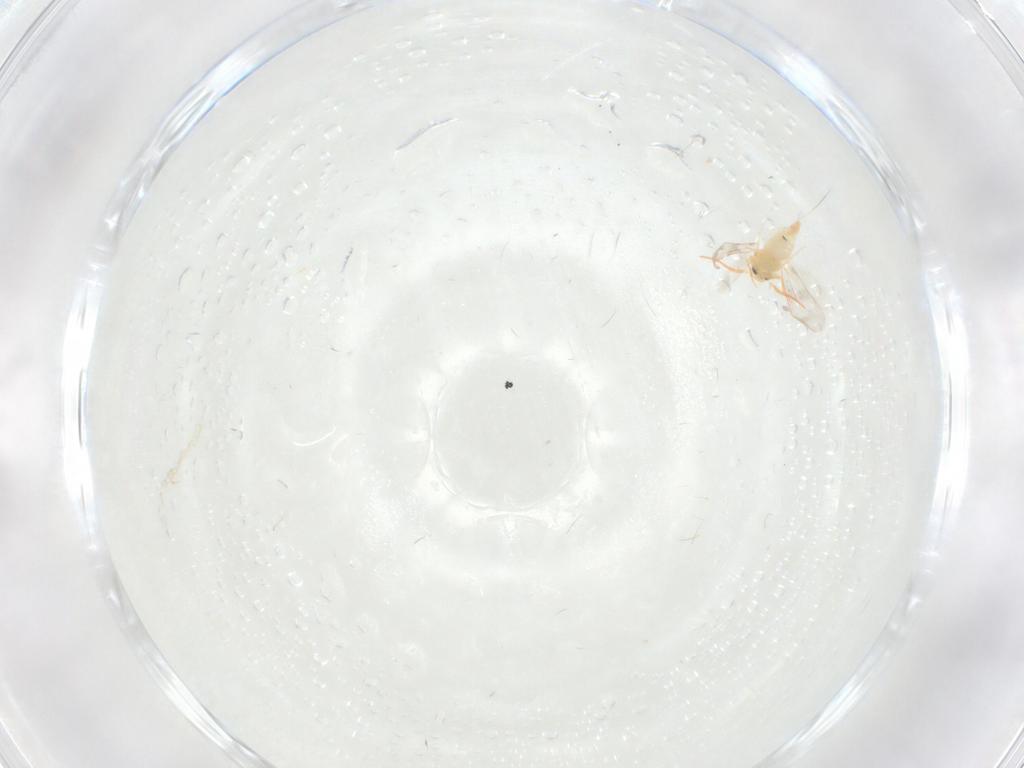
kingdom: Animalia
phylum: Arthropoda
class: Insecta
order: Hemiptera
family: Aleyrodidae
